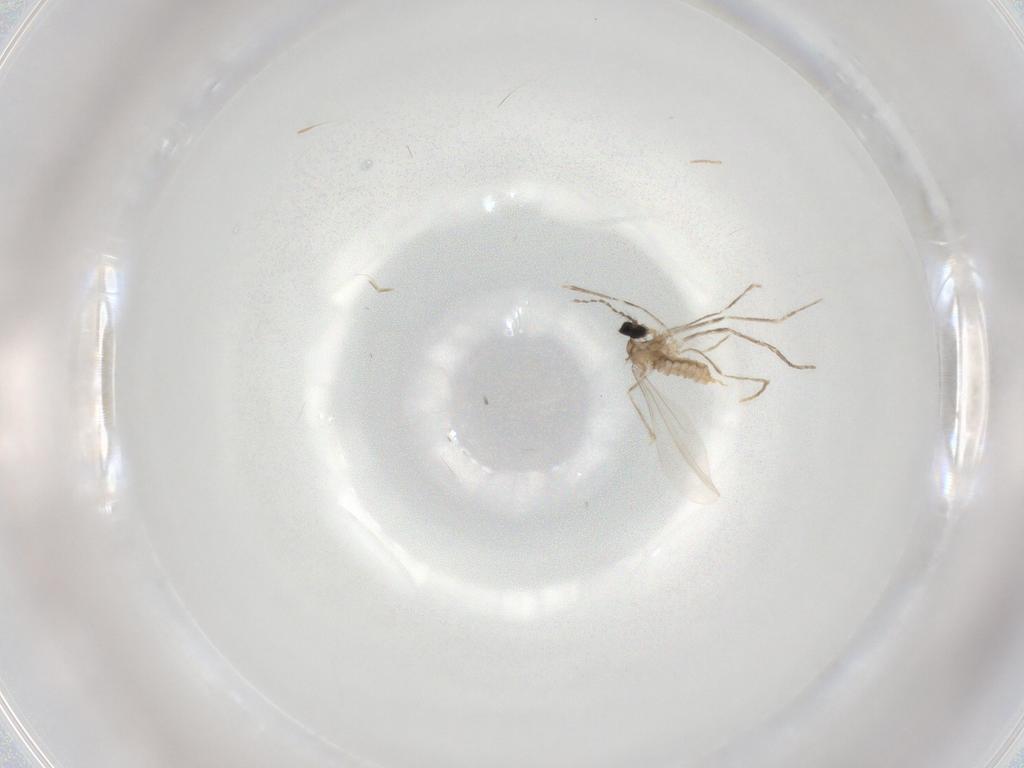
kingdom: Animalia
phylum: Arthropoda
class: Insecta
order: Diptera
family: Cecidomyiidae
